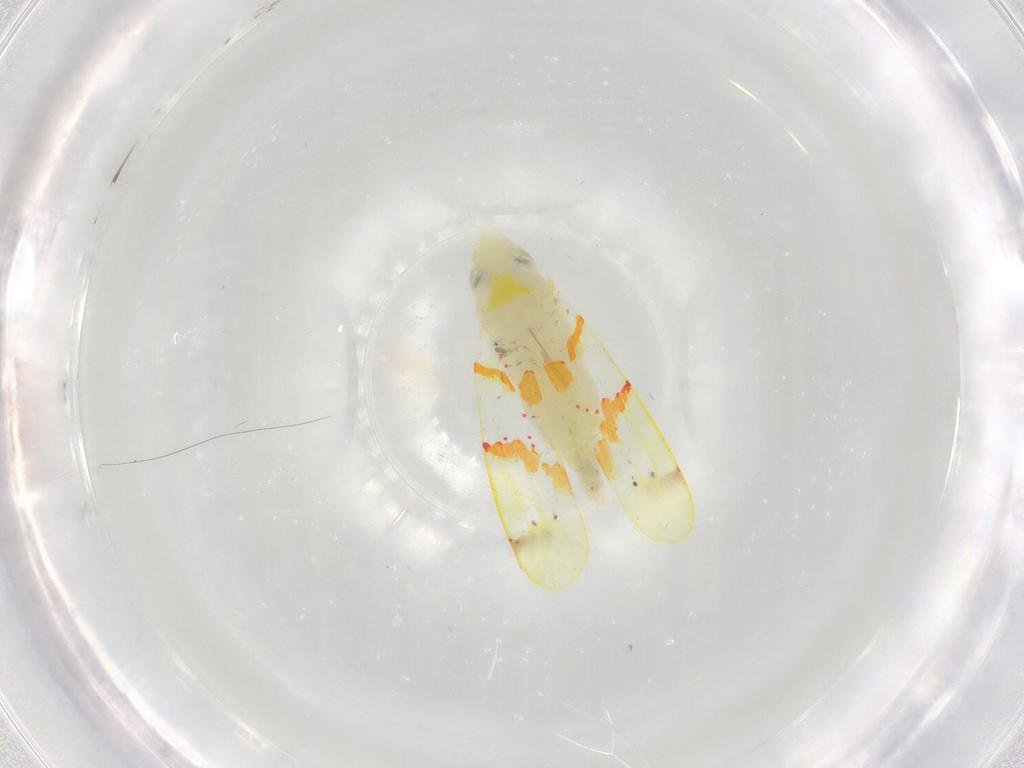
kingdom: Animalia
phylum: Arthropoda
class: Insecta
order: Hemiptera
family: Cicadellidae
